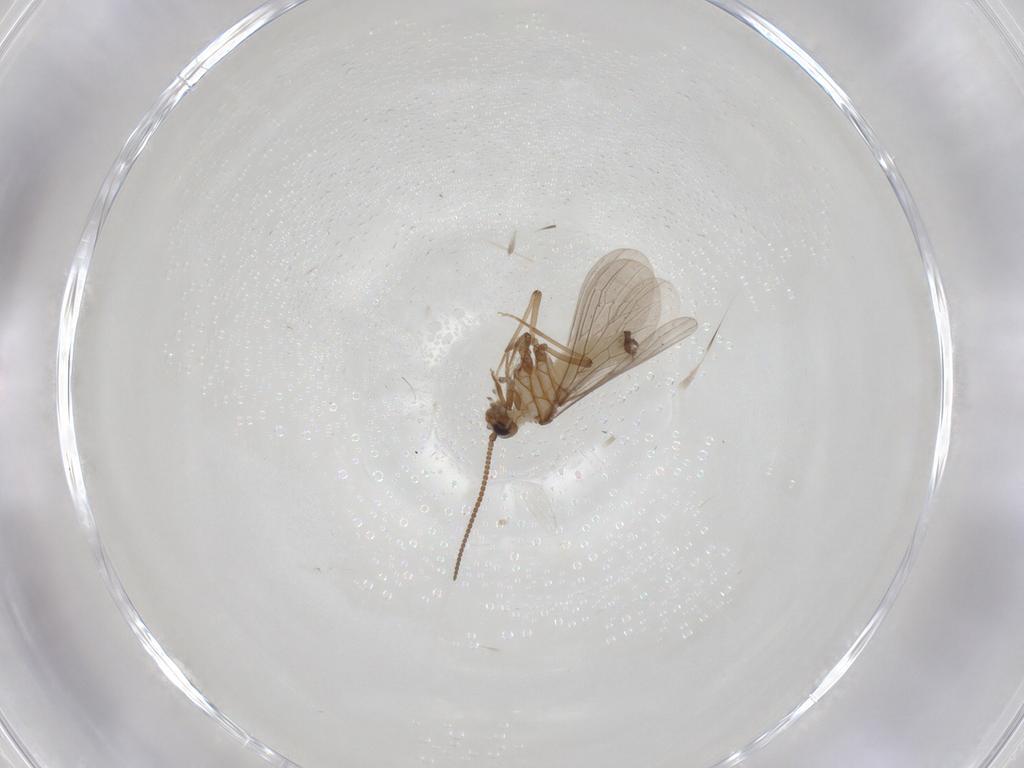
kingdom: Animalia
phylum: Arthropoda
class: Insecta
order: Neuroptera
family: Coniopterygidae
